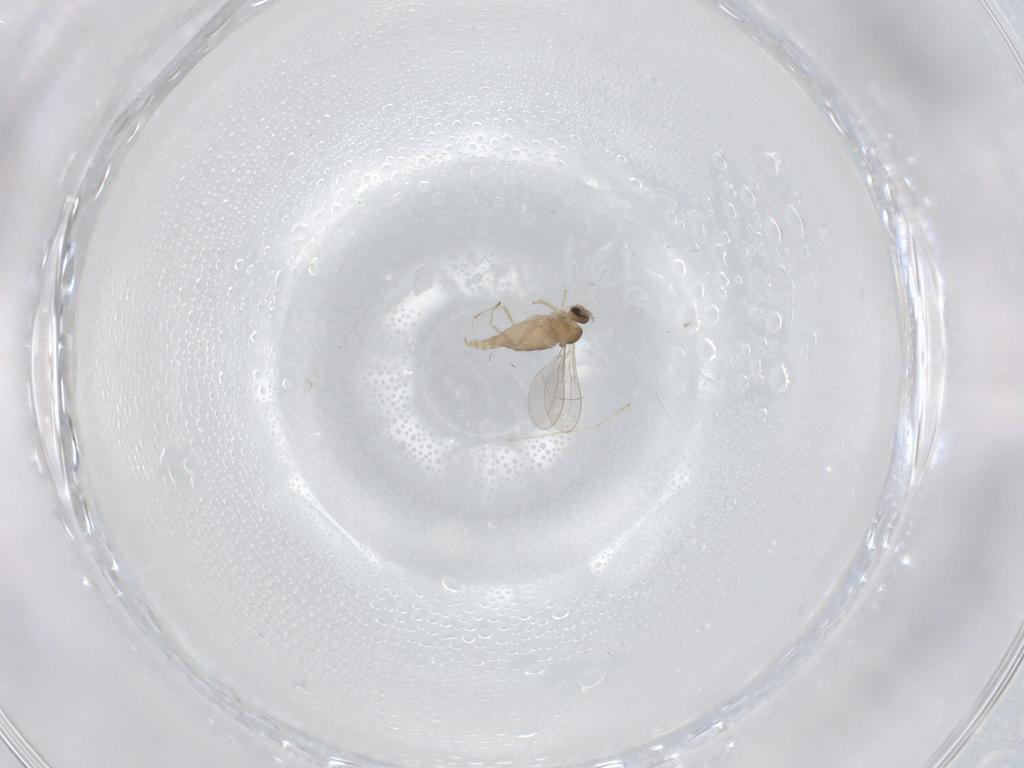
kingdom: Animalia
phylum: Arthropoda
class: Insecta
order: Diptera
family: Cecidomyiidae
